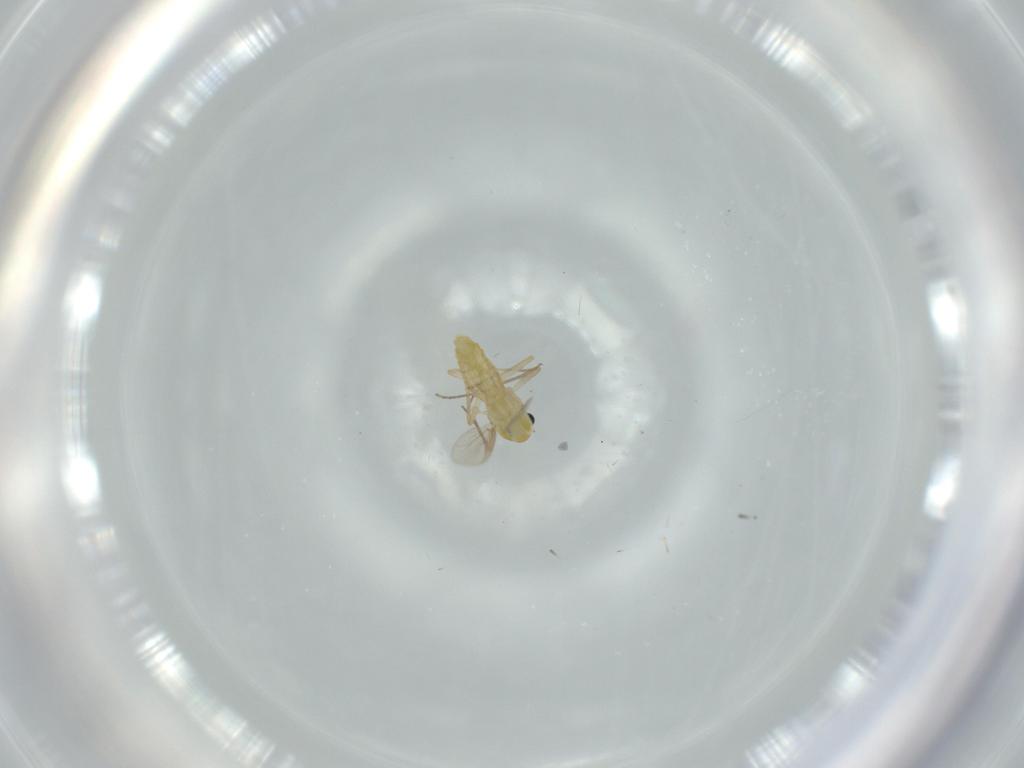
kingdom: Animalia
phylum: Arthropoda
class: Insecta
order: Diptera
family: Chironomidae
